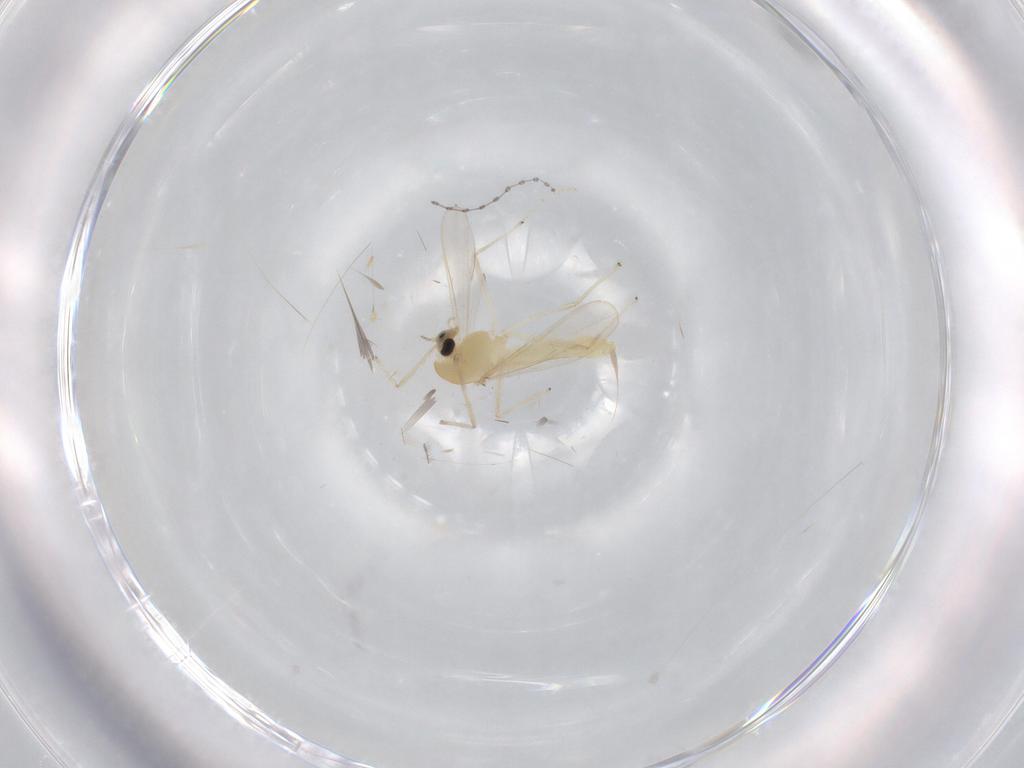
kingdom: Animalia
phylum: Arthropoda
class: Insecta
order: Diptera
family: Chironomidae
